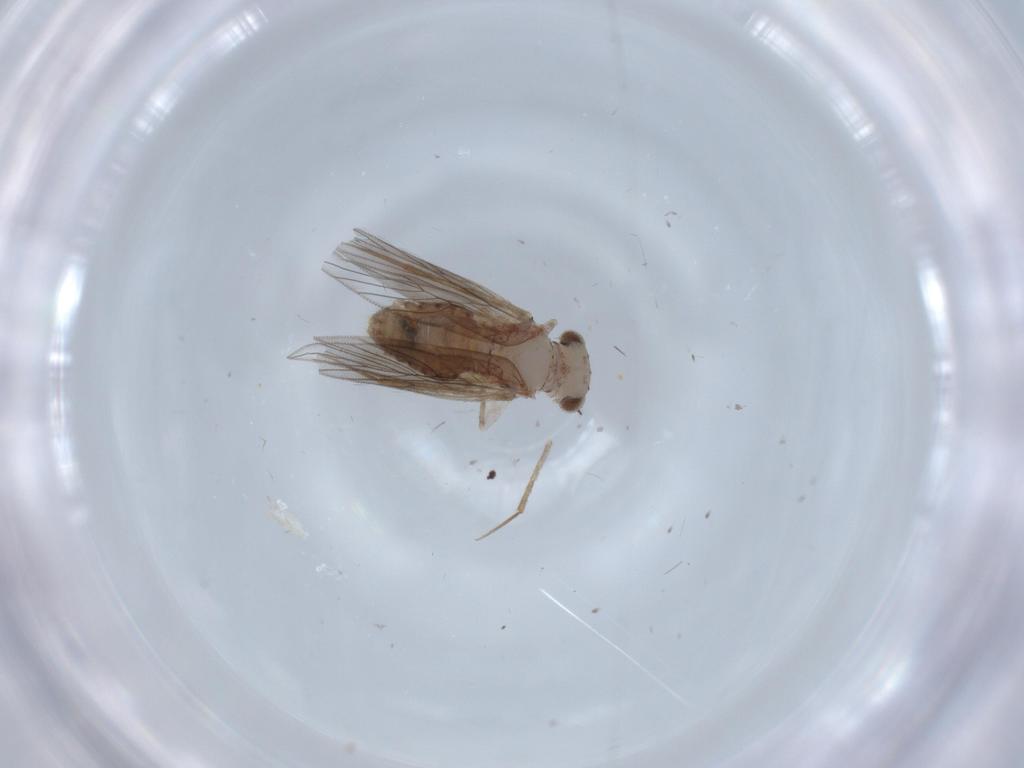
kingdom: Animalia
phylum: Arthropoda
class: Insecta
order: Psocodea
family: Lepidopsocidae
